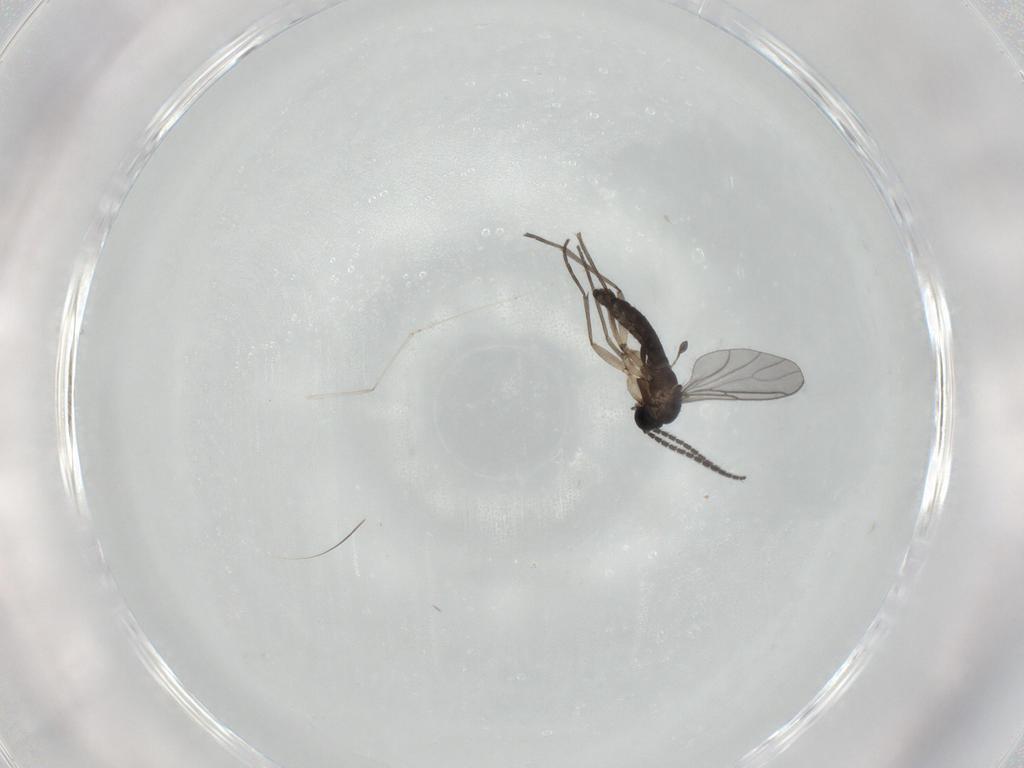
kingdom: Animalia
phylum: Arthropoda
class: Insecta
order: Diptera
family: Sciaridae
